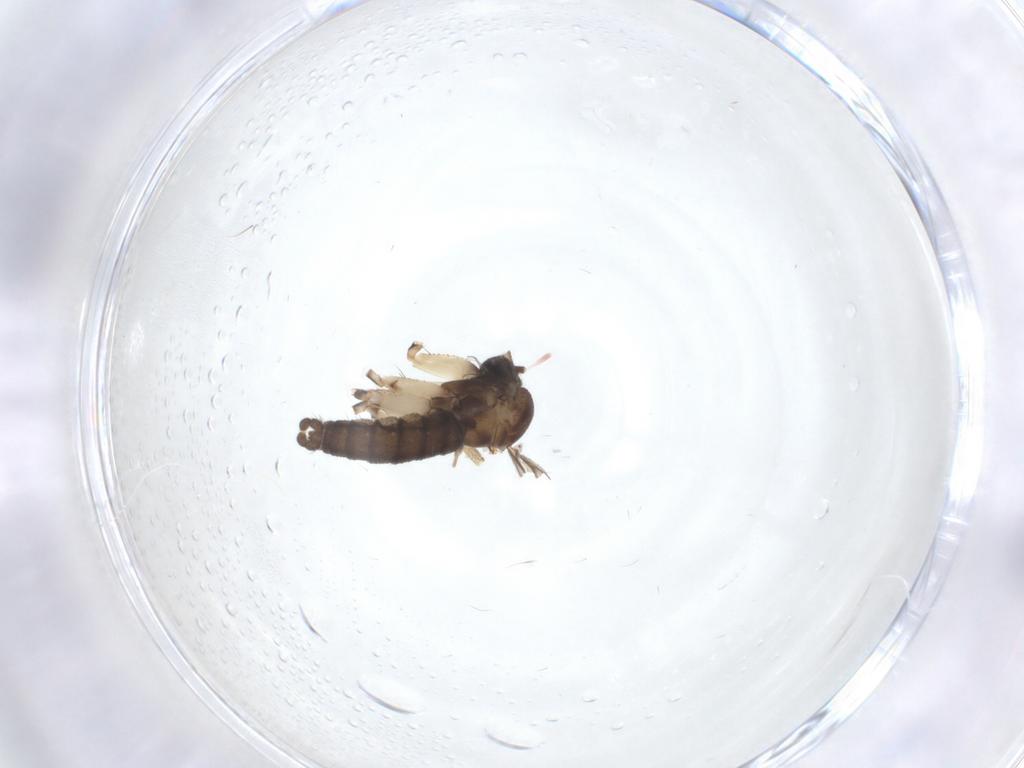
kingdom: Animalia
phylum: Arthropoda
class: Insecta
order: Diptera
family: Sciaridae
